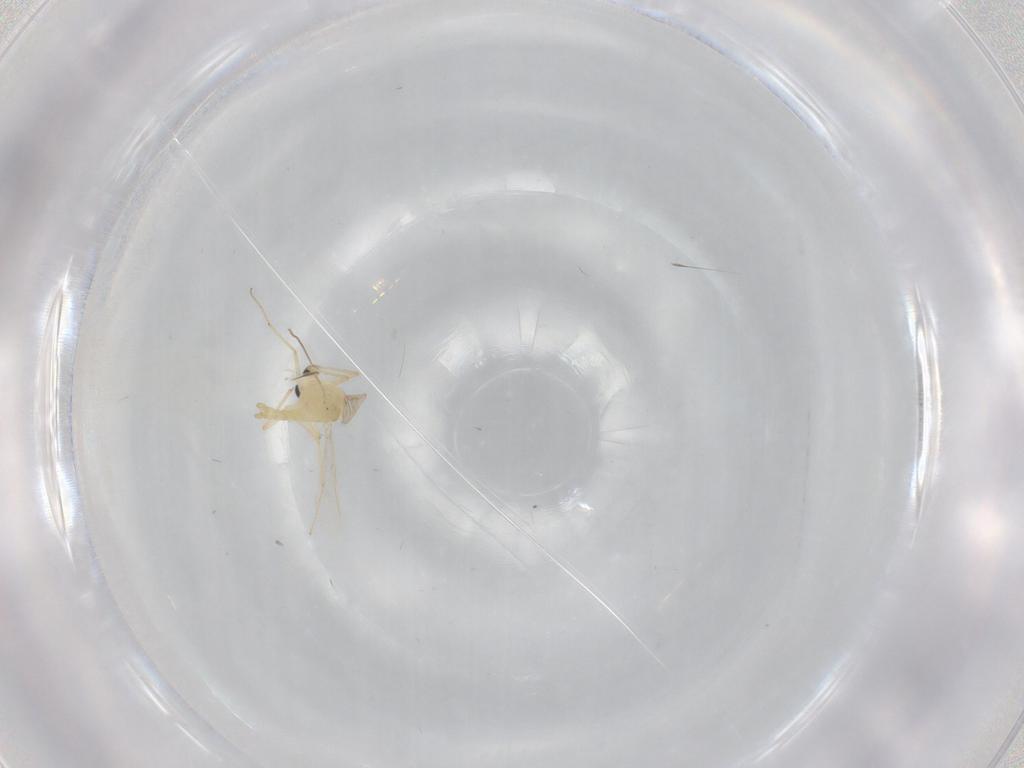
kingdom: Animalia
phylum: Arthropoda
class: Insecta
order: Diptera
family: Chironomidae
